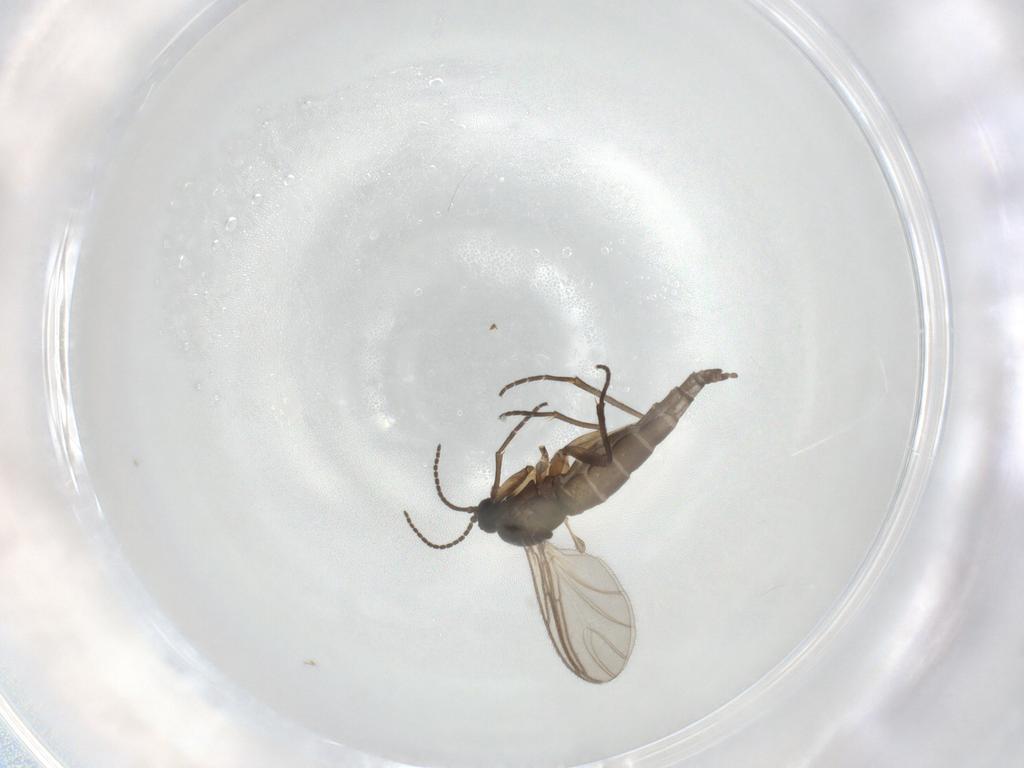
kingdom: Animalia
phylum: Arthropoda
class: Insecta
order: Diptera
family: Sciaridae
